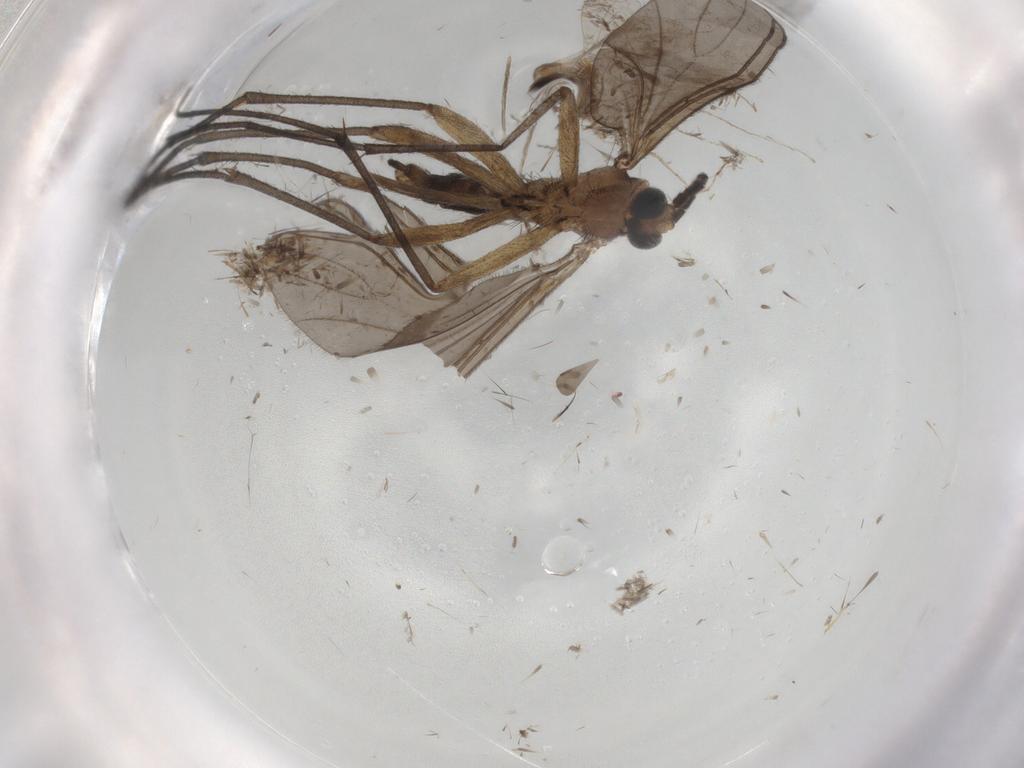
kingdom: Animalia
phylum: Arthropoda
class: Insecta
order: Diptera
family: Cecidomyiidae
